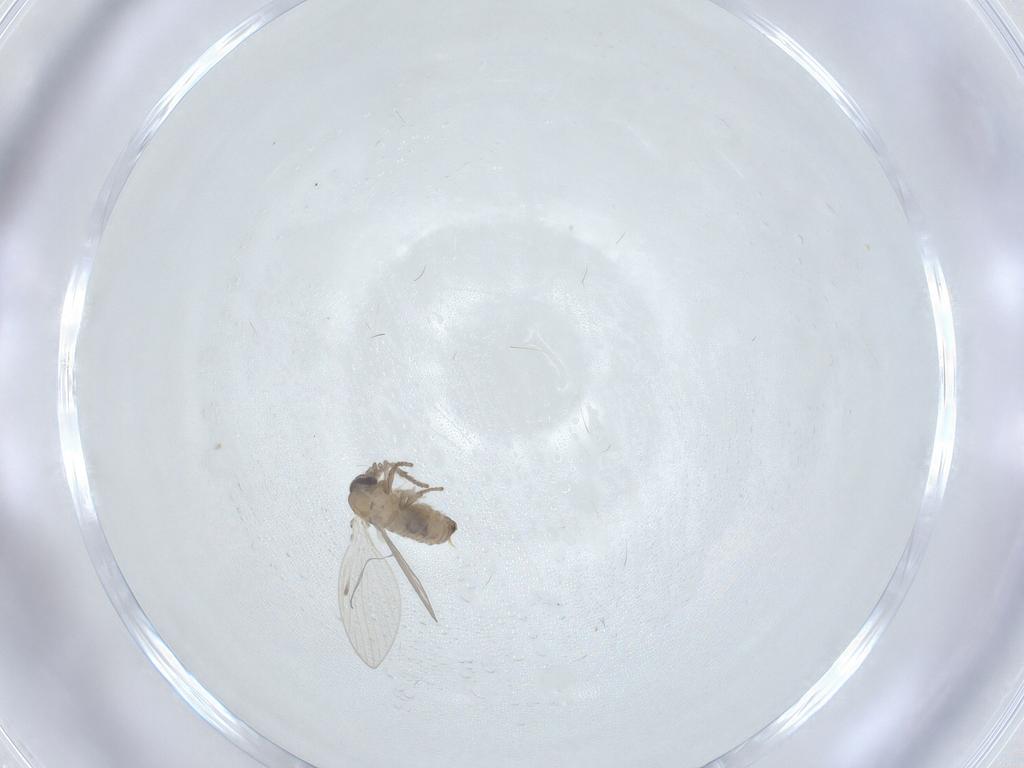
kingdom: Animalia
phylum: Arthropoda
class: Insecta
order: Diptera
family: Psychodidae
